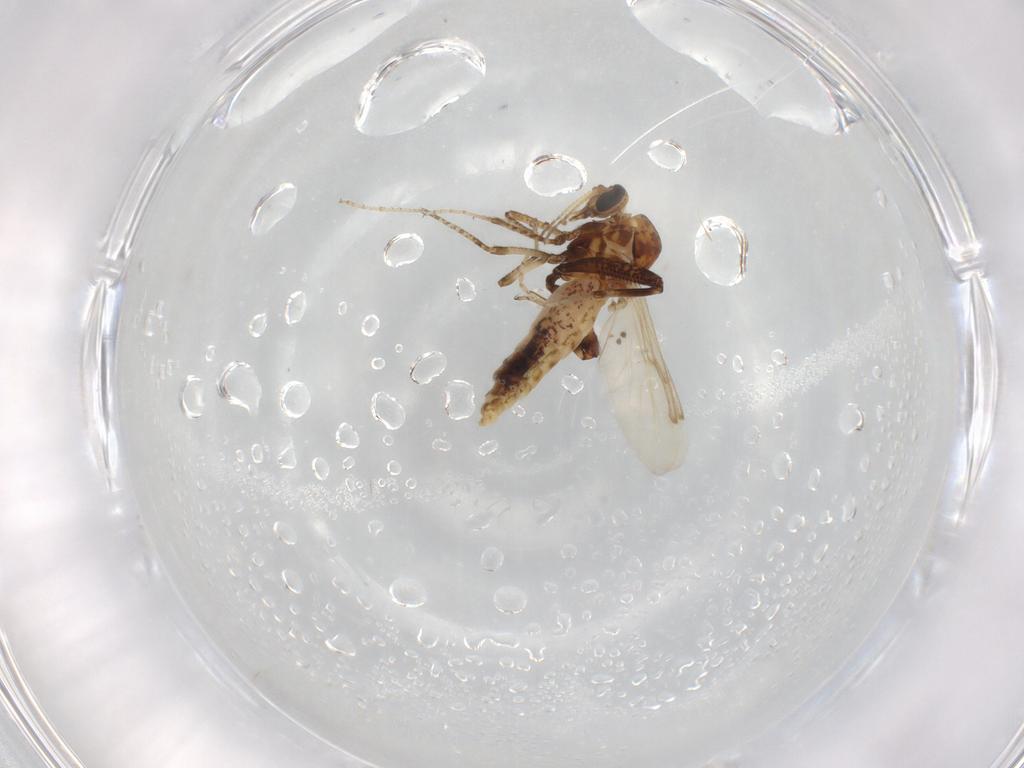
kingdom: Animalia
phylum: Arthropoda
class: Insecta
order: Diptera
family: Ceratopogonidae
